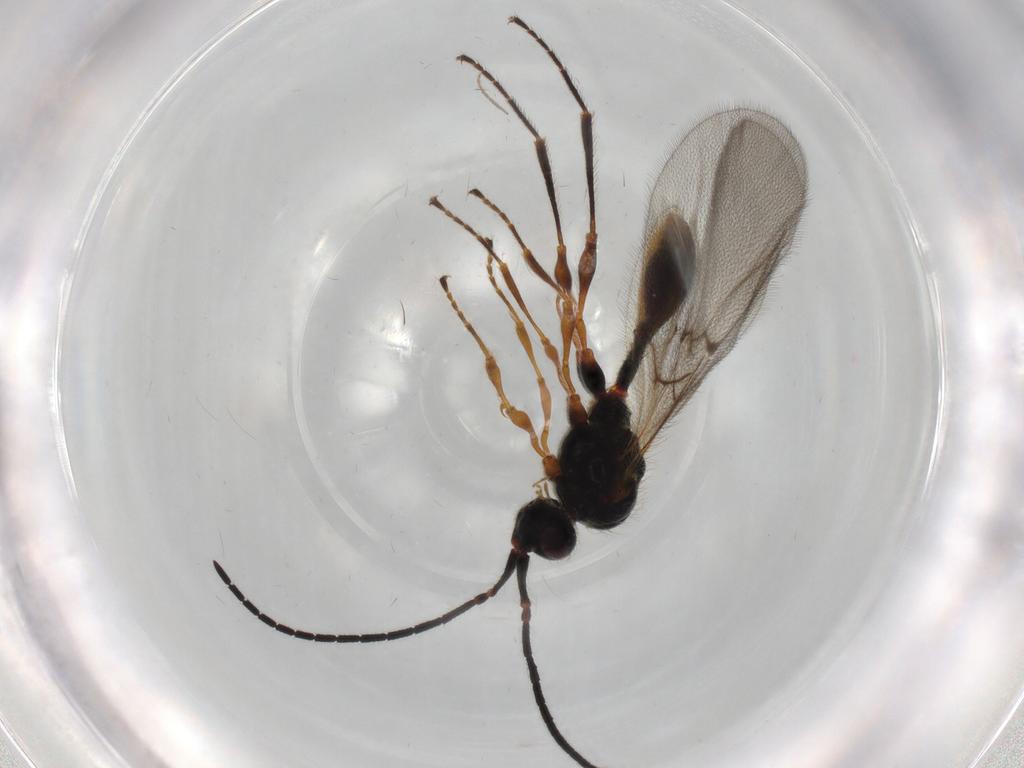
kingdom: Animalia
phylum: Arthropoda
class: Insecta
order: Hymenoptera
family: Diapriidae
